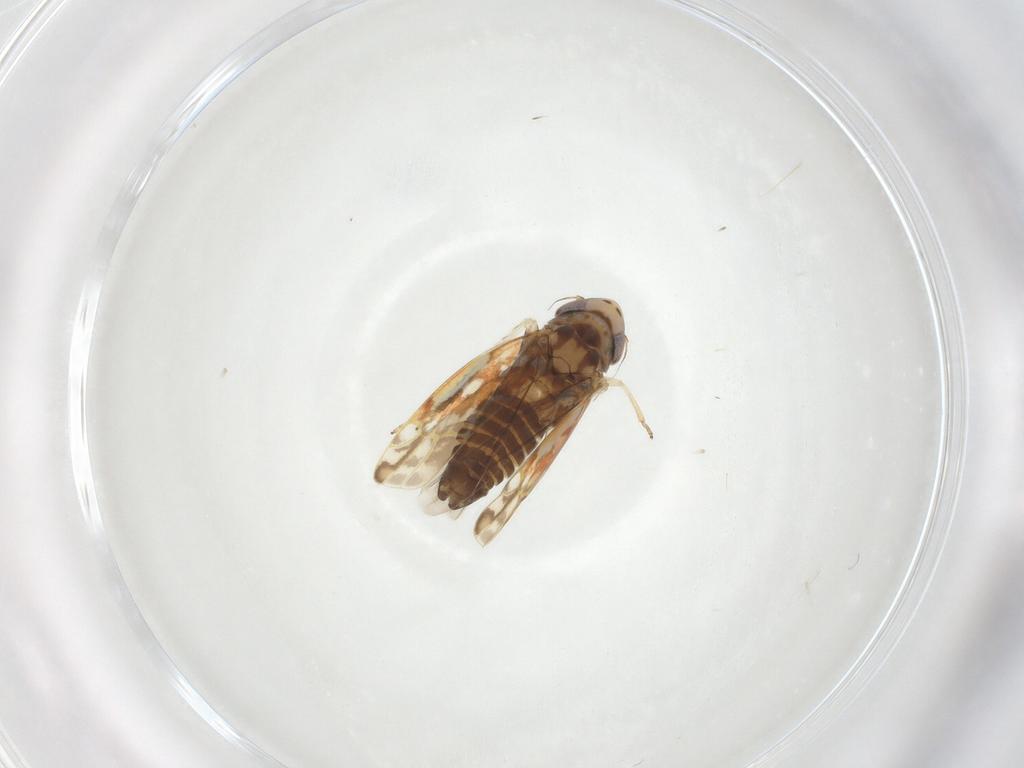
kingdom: Animalia
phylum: Arthropoda
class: Insecta
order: Hemiptera
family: Cicadellidae
